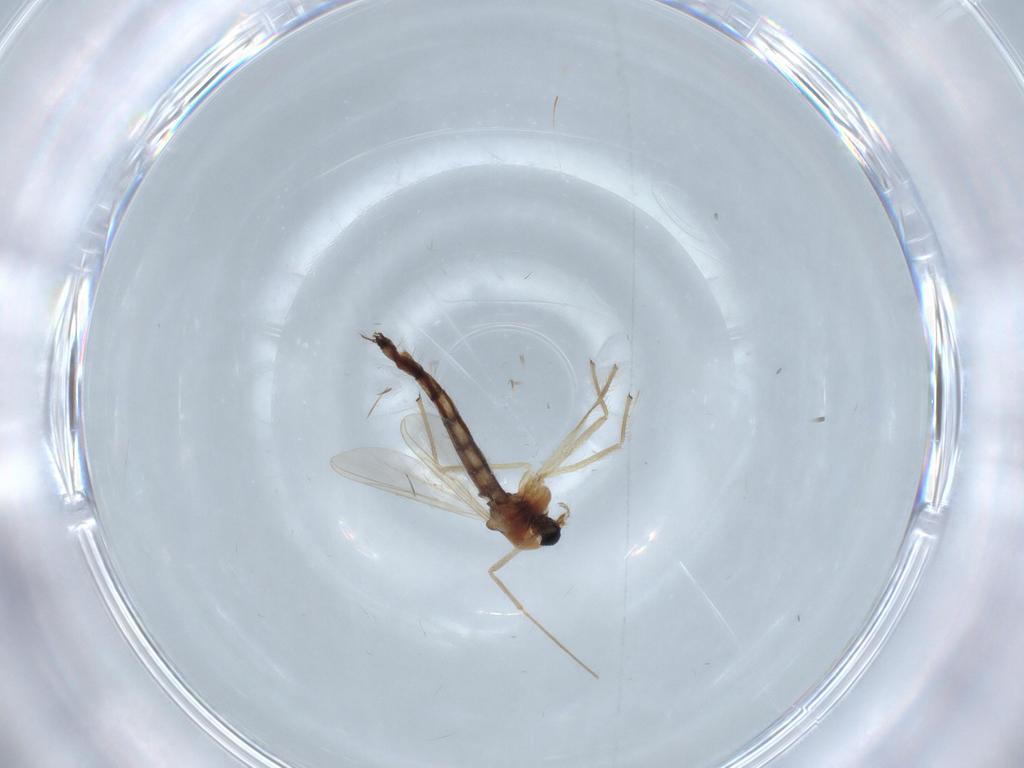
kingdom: Animalia
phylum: Arthropoda
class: Insecta
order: Diptera
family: Chironomidae
